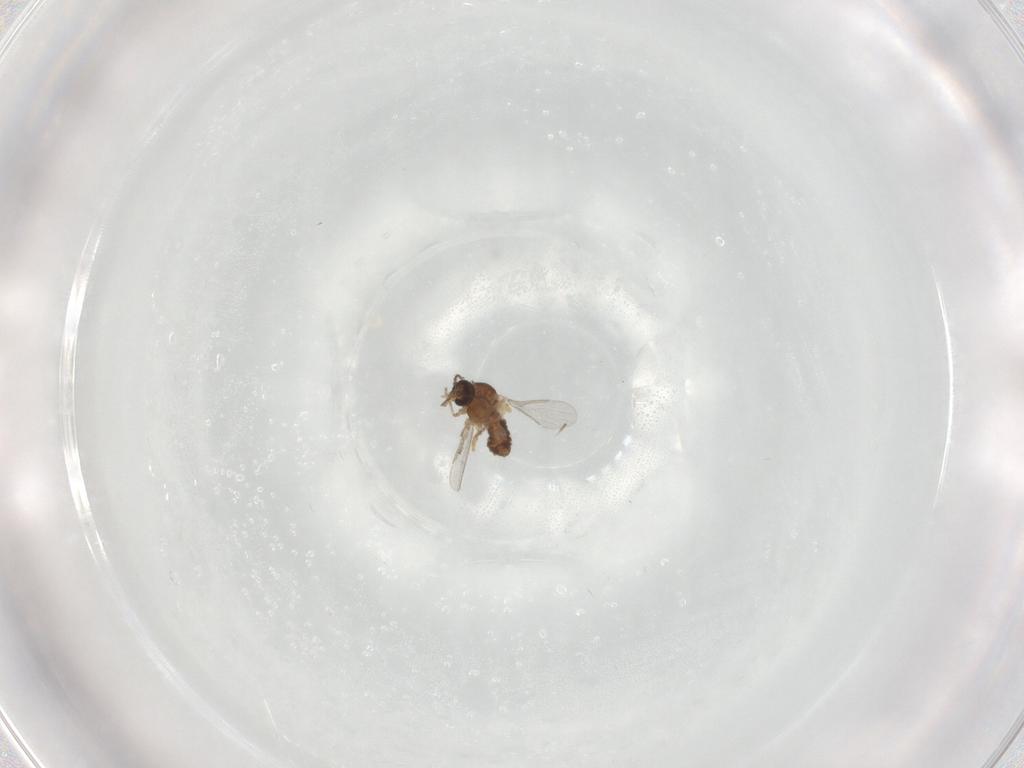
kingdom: Animalia
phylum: Arthropoda
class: Insecta
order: Diptera
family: Ceratopogonidae
